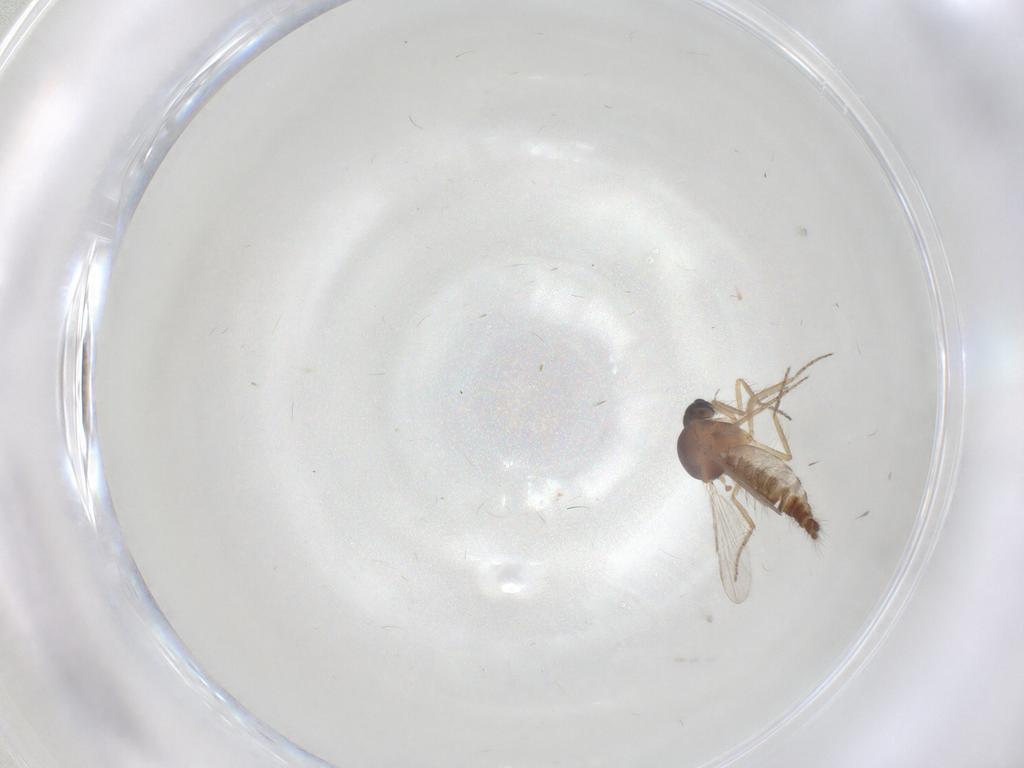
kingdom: Animalia
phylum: Arthropoda
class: Insecta
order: Diptera
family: Ceratopogonidae
